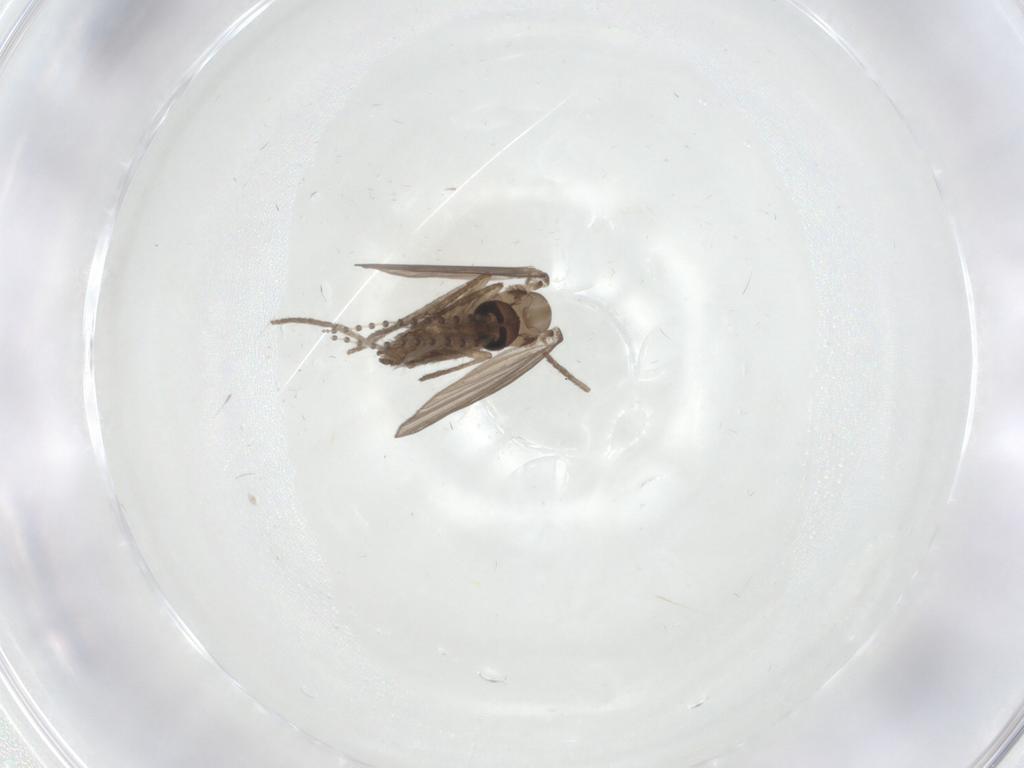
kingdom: Animalia
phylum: Arthropoda
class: Insecta
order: Diptera
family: Psychodidae
